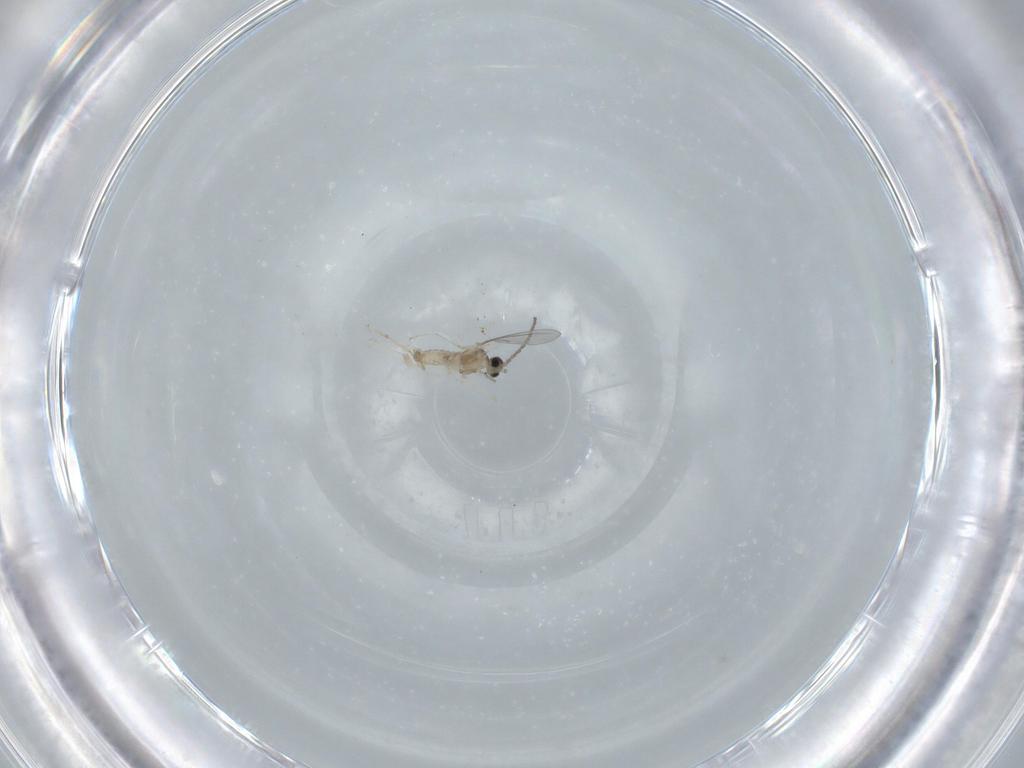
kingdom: Animalia
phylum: Arthropoda
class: Insecta
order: Diptera
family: Cecidomyiidae
